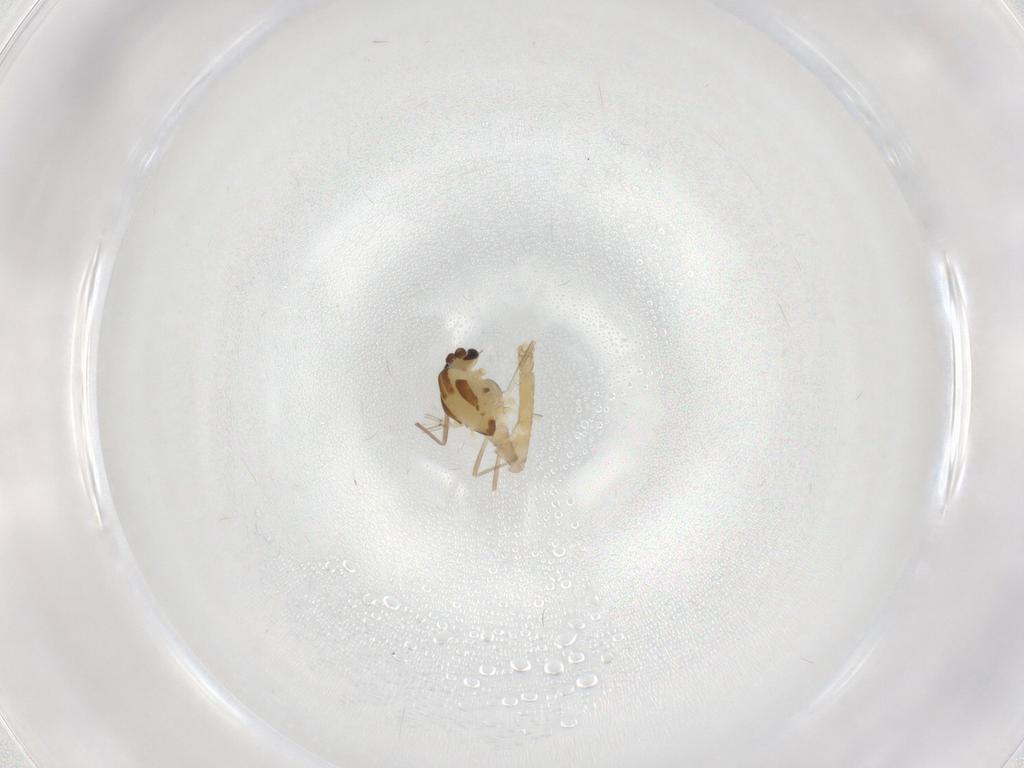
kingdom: Animalia
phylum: Arthropoda
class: Insecta
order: Diptera
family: Chironomidae
